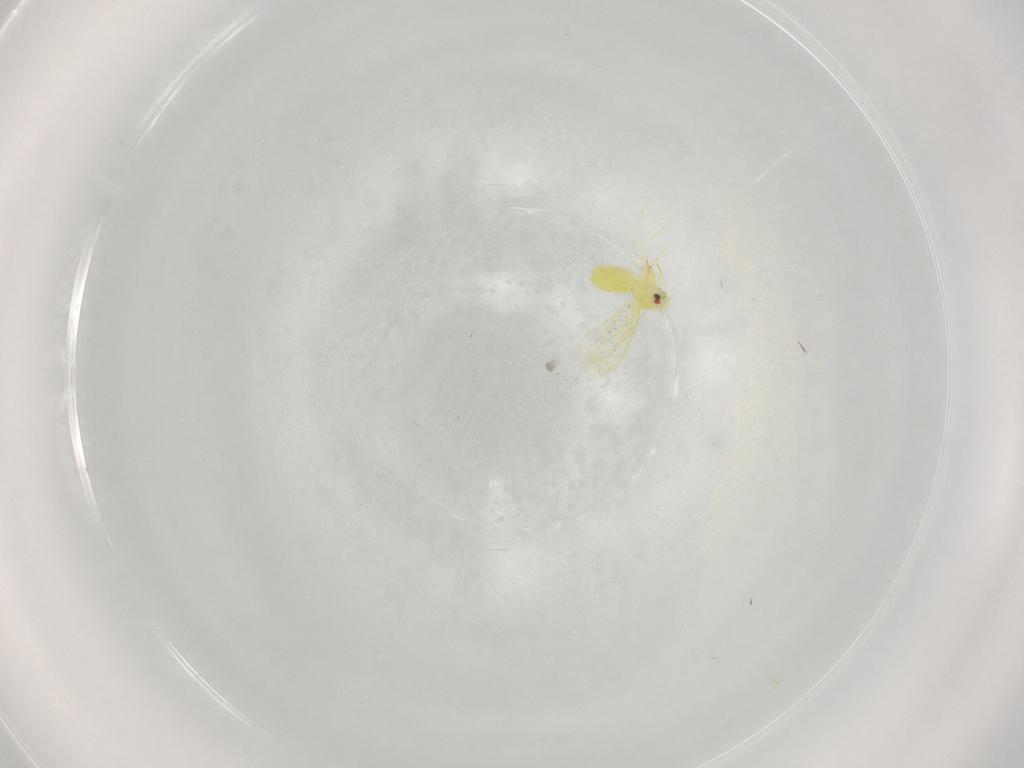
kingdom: Animalia
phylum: Arthropoda
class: Insecta
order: Hemiptera
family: Aleyrodidae
